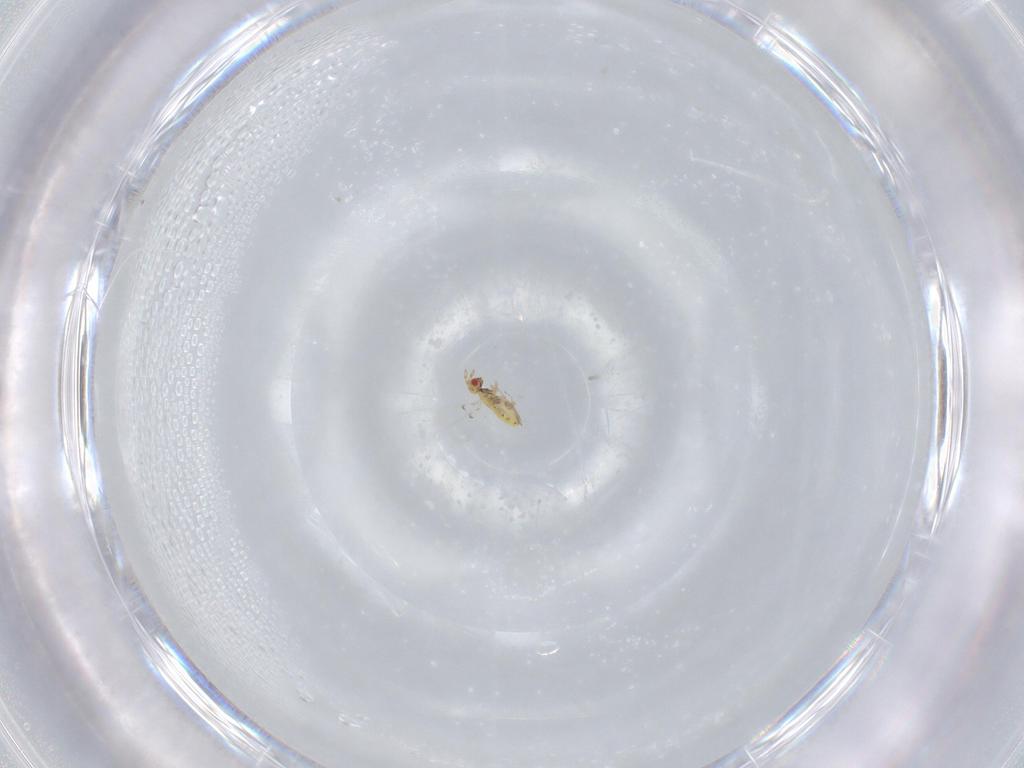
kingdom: Animalia
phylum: Arthropoda
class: Insecta
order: Hymenoptera
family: Trichogrammatidae
